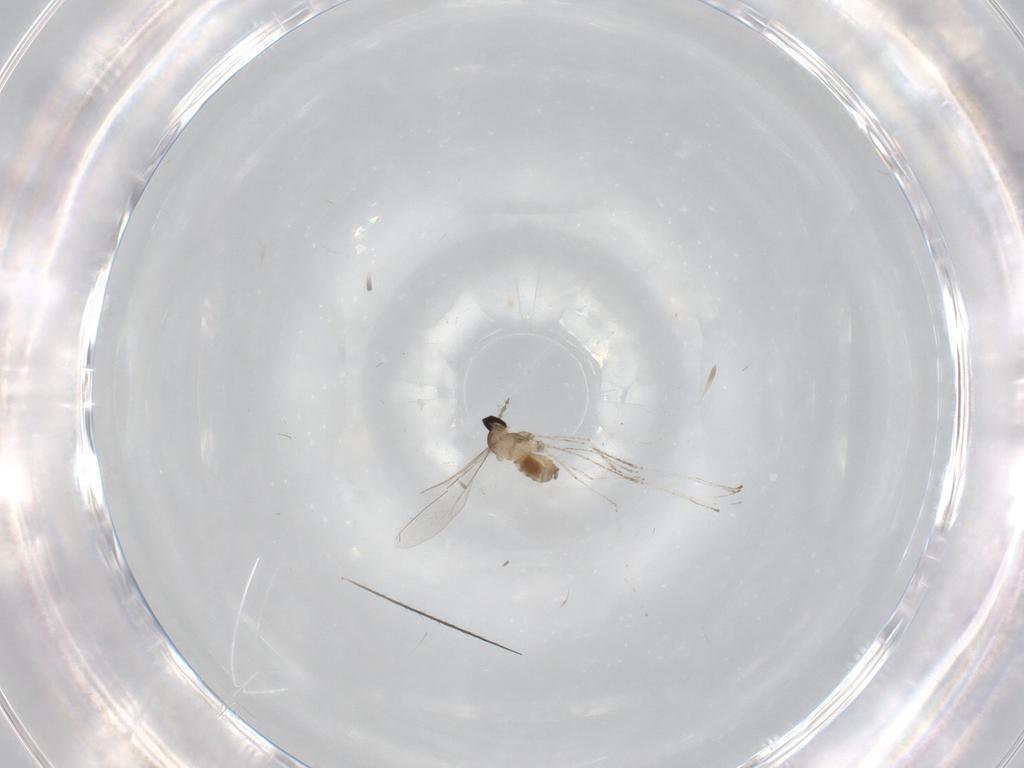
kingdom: Animalia
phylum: Arthropoda
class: Insecta
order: Diptera
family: Cecidomyiidae
